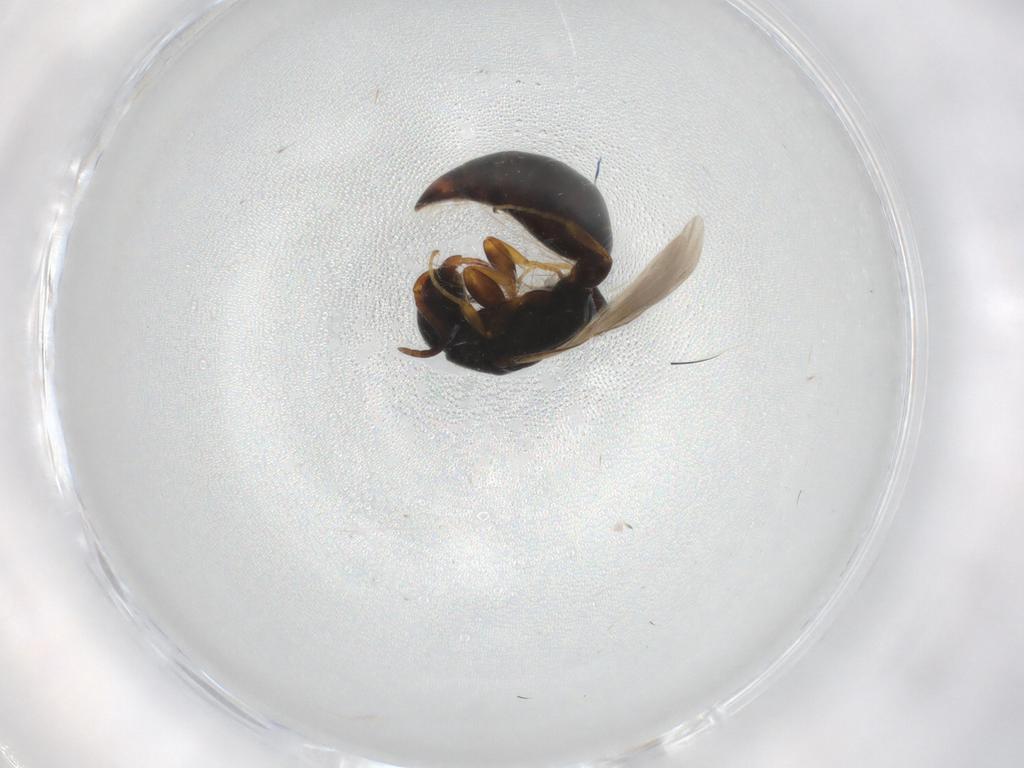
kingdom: Animalia
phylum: Arthropoda
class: Insecta
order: Hymenoptera
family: Bethylidae
